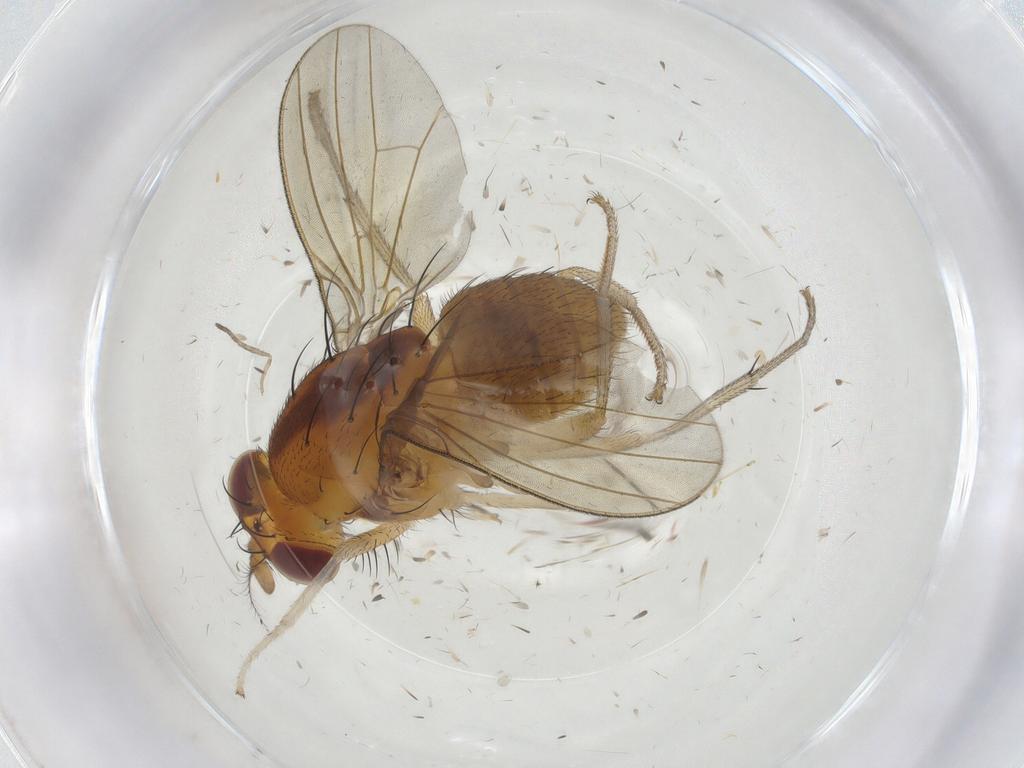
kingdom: Animalia
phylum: Arthropoda
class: Insecta
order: Diptera
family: Lauxaniidae
